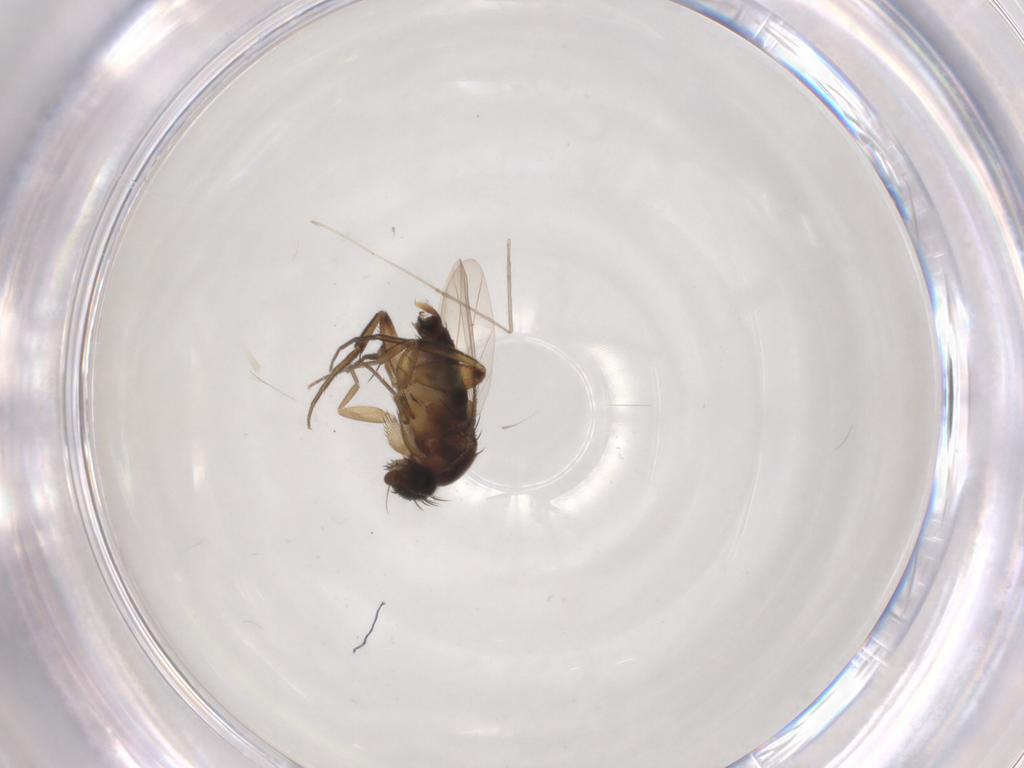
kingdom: Animalia
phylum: Arthropoda
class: Insecta
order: Diptera
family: Phoridae
